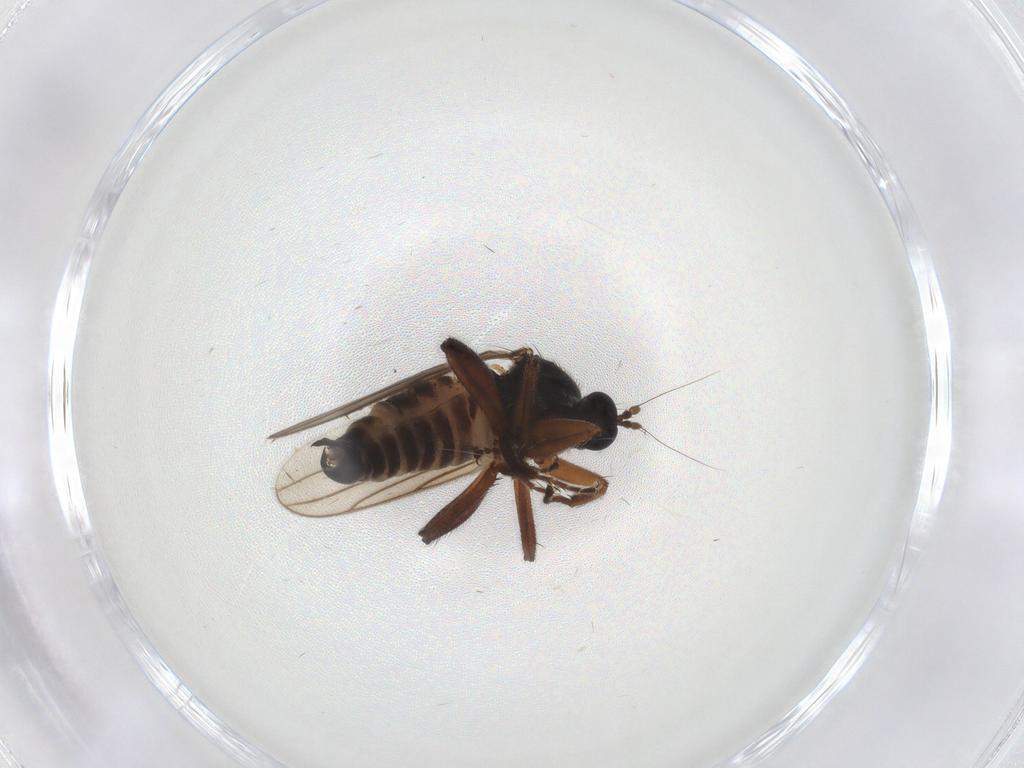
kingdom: Animalia
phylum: Arthropoda
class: Insecta
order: Diptera
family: Hybotidae
